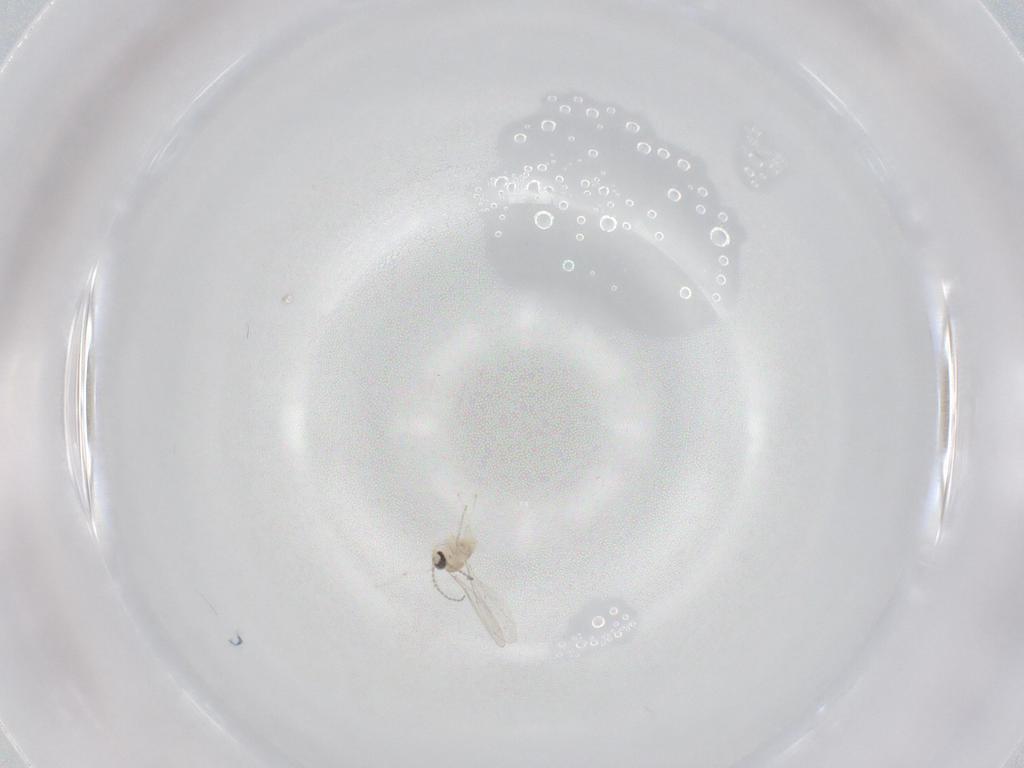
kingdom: Animalia
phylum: Arthropoda
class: Insecta
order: Diptera
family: Cecidomyiidae
